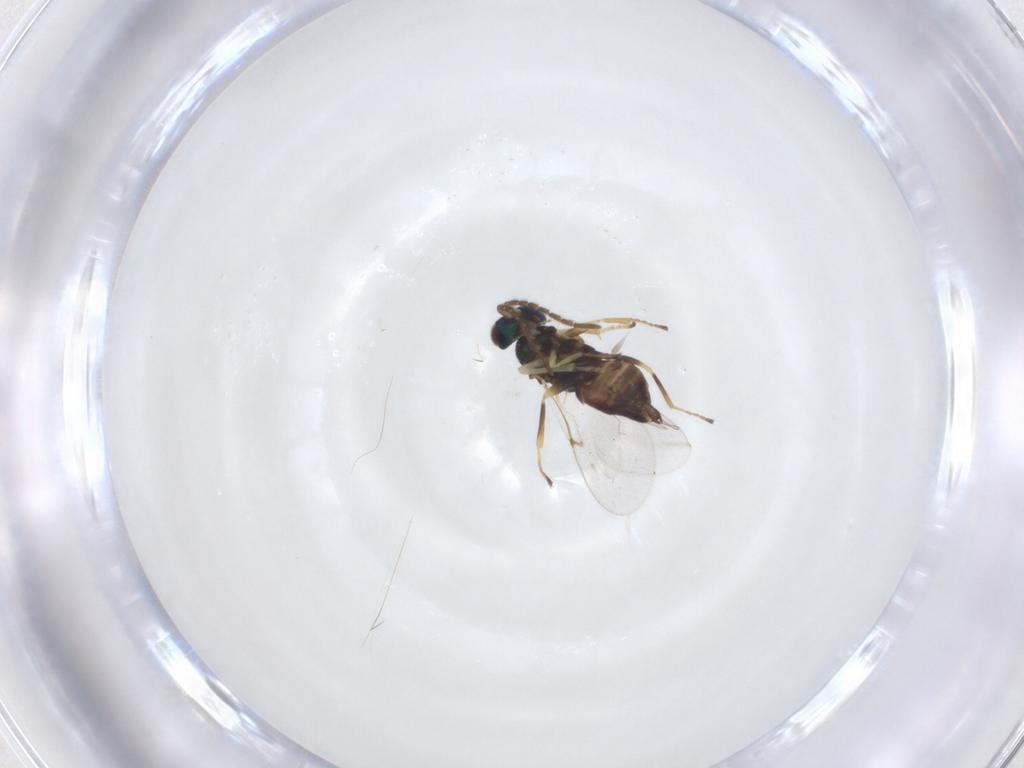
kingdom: Animalia
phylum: Arthropoda
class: Insecta
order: Hymenoptera
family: Encyrtidae
